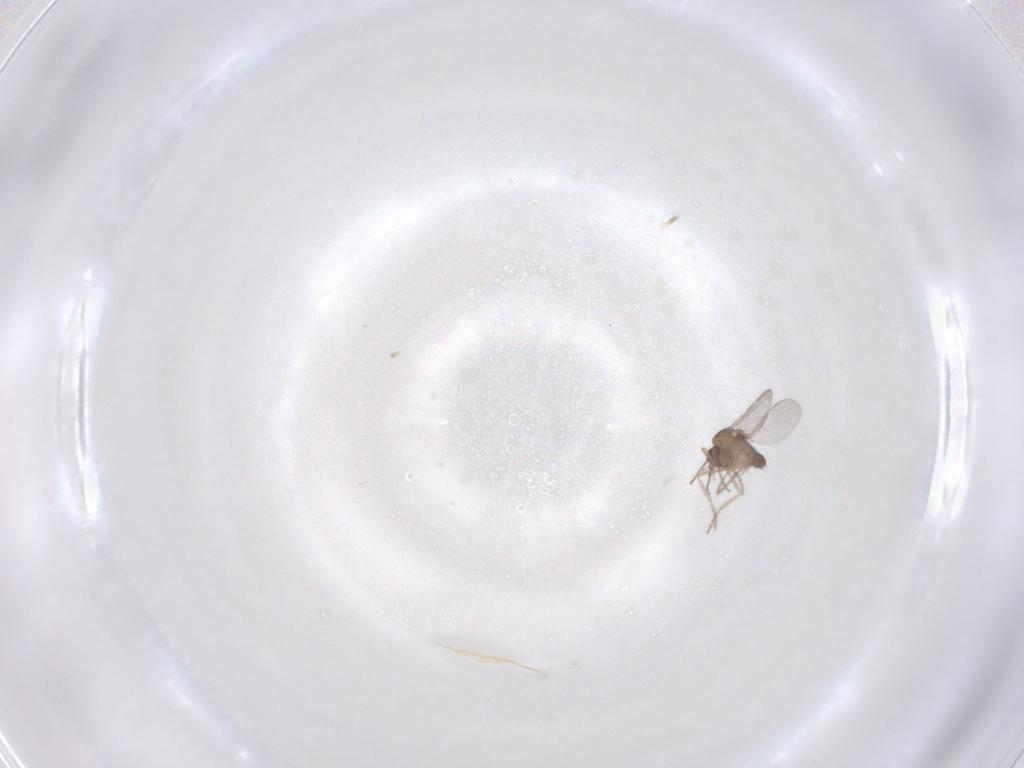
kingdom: Animalia
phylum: Arthropoda
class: Insecta
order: Diptera
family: Ceratopogonidae
